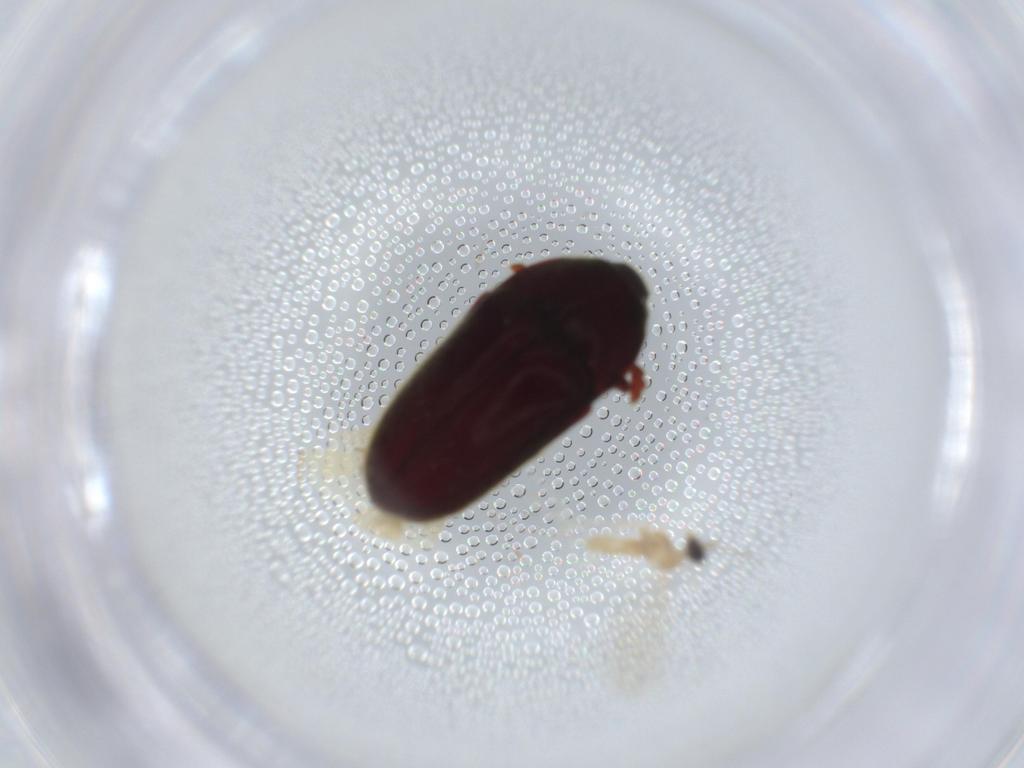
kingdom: Animalia
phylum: Arthropoda
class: Insecta
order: Coleoptera
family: Throscidae
